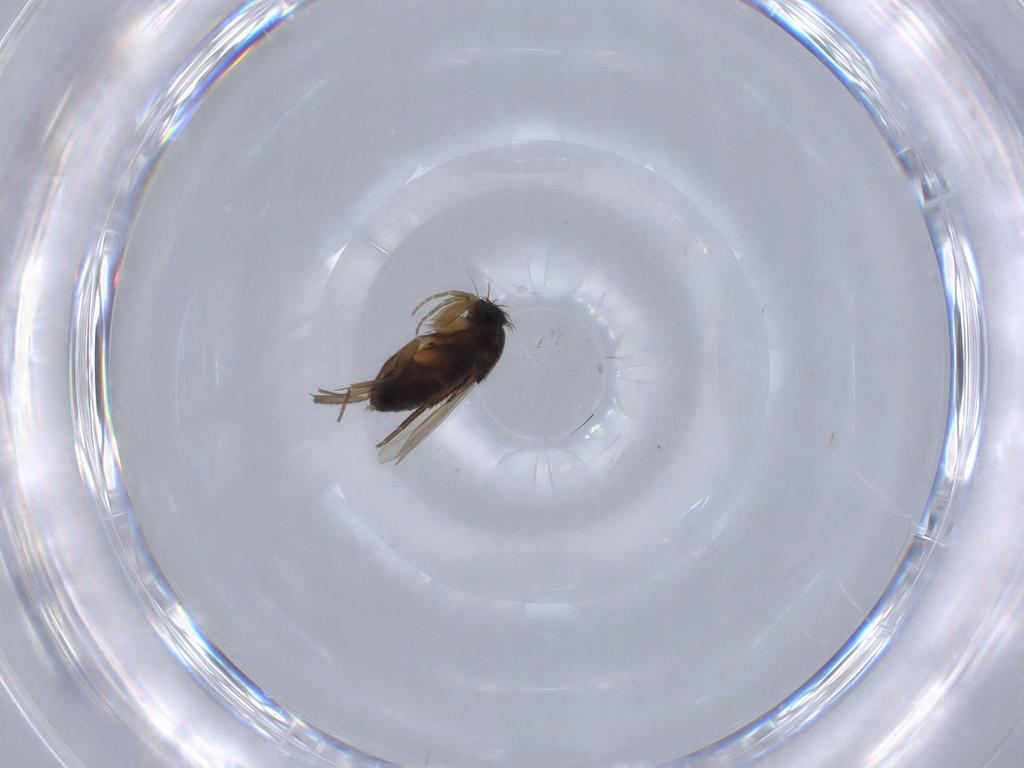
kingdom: Animalia
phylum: Arthropoda
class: Insecta
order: Diptera
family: Phoridae
